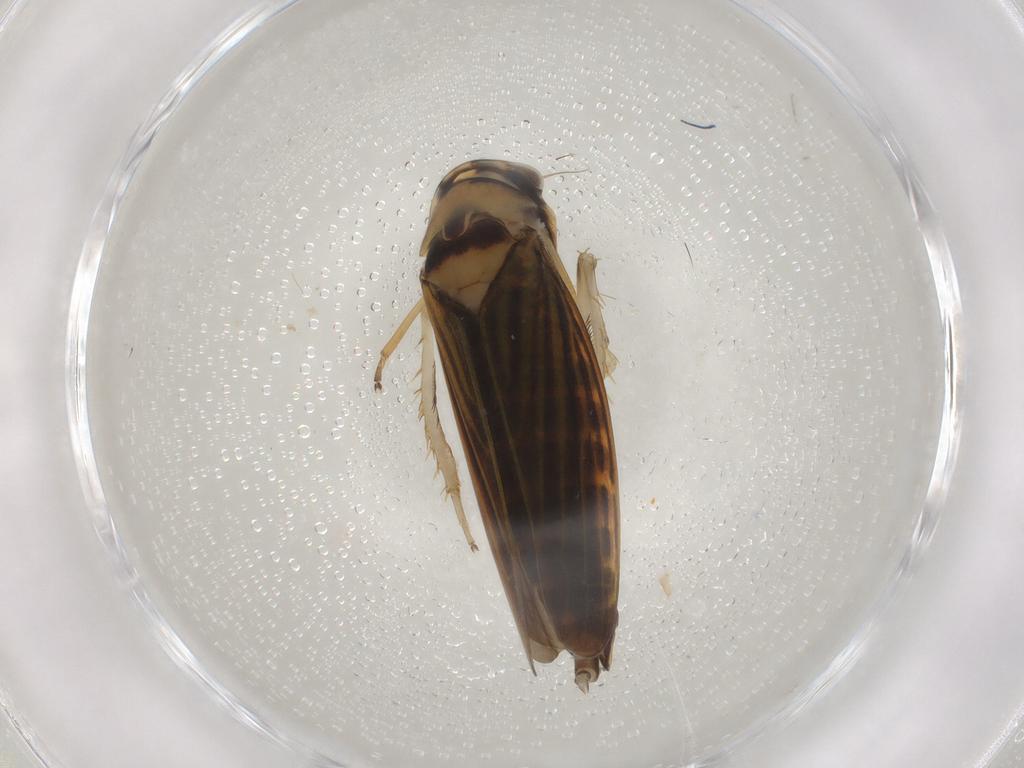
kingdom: Animalia
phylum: Arthropoda
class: Insecta
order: Hemiptera
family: Cicadellidae
